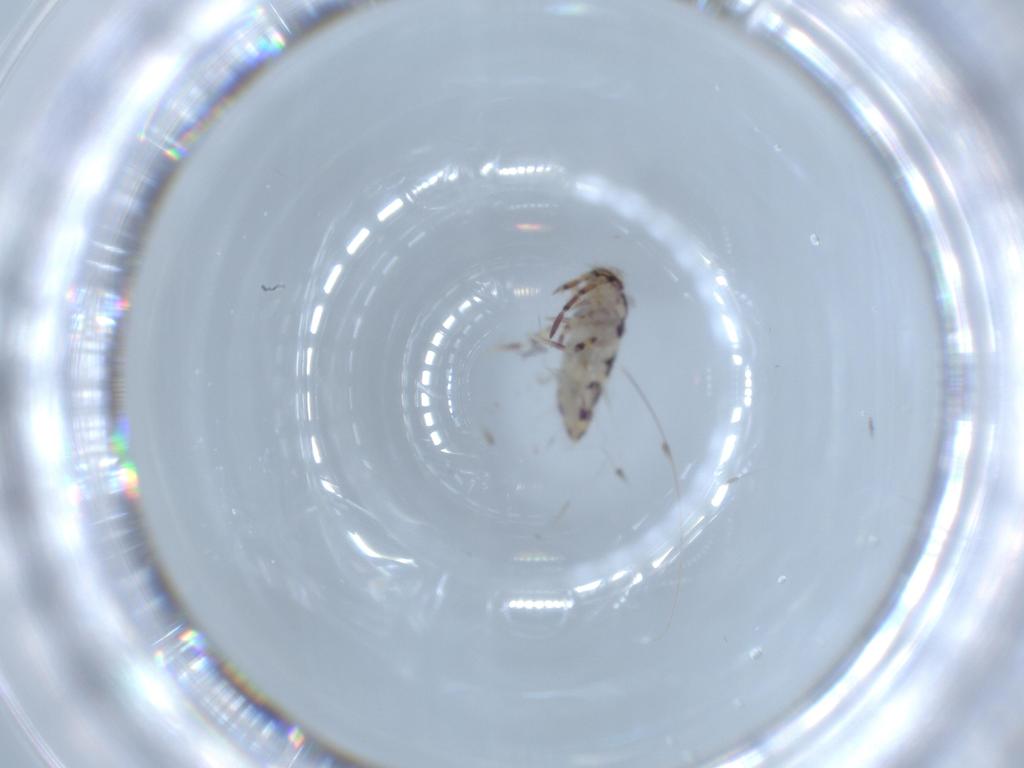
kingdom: Animalia
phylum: Arthropoda
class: Collembola
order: Entomobryomorpha
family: Entomobryidae
